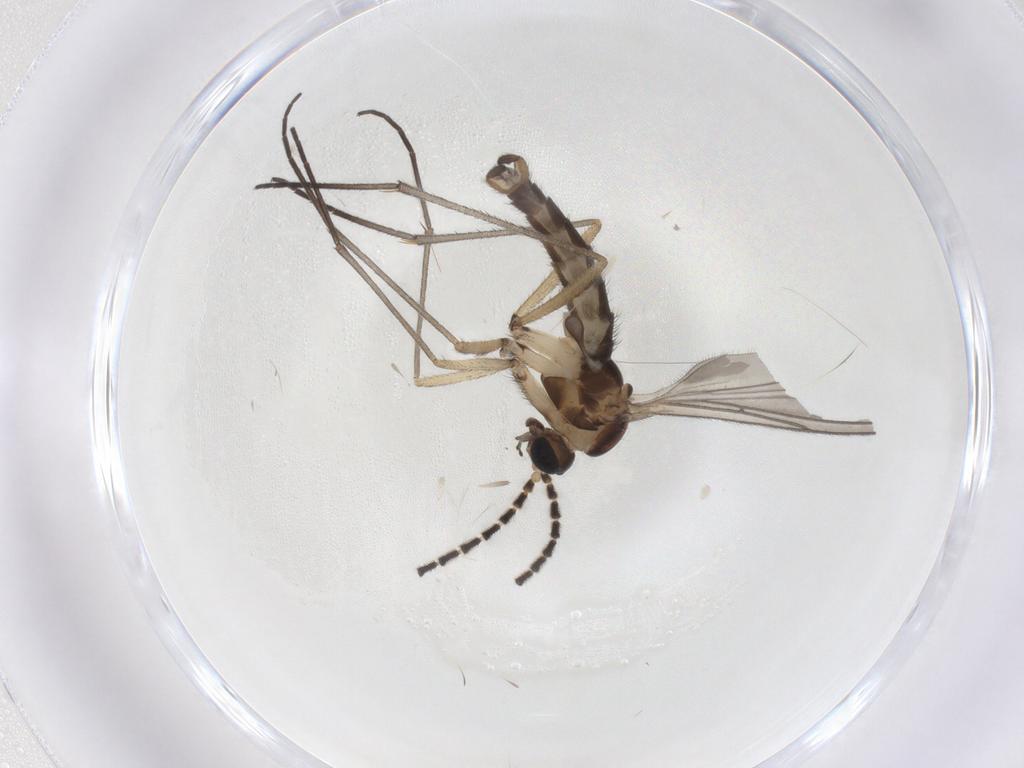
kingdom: Animalia
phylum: Arthropoda
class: Insecta
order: Diptera
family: Sciaridae
